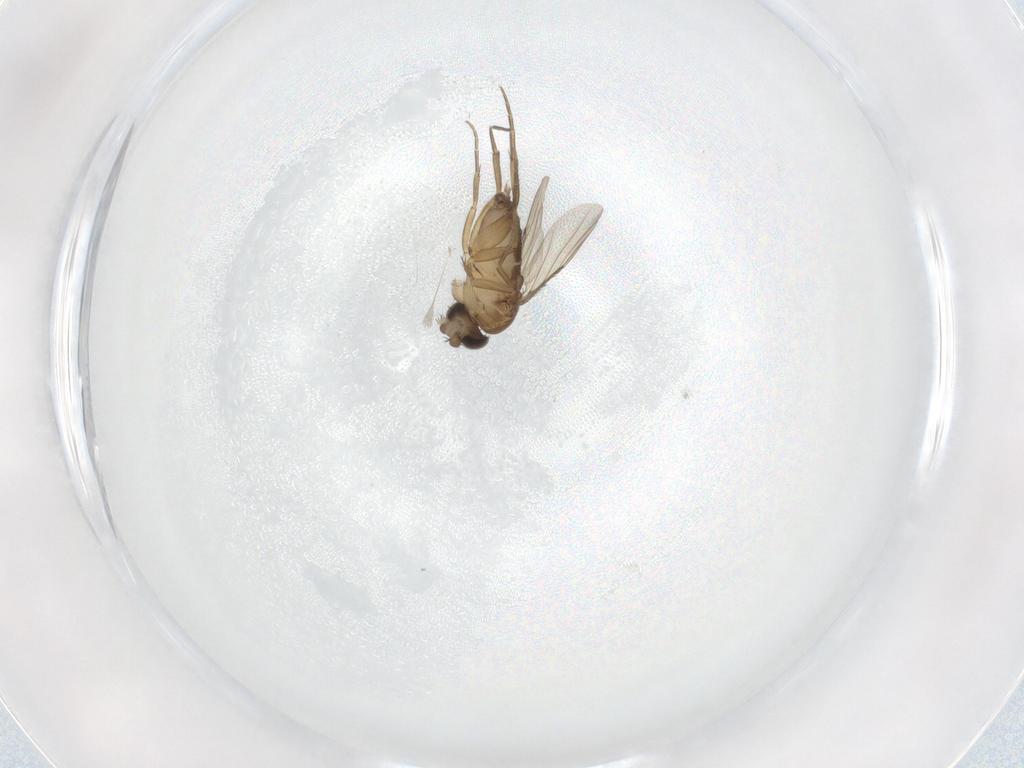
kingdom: Animalia
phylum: Arthropoda
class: Insecta
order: Diptera
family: Phoridae
